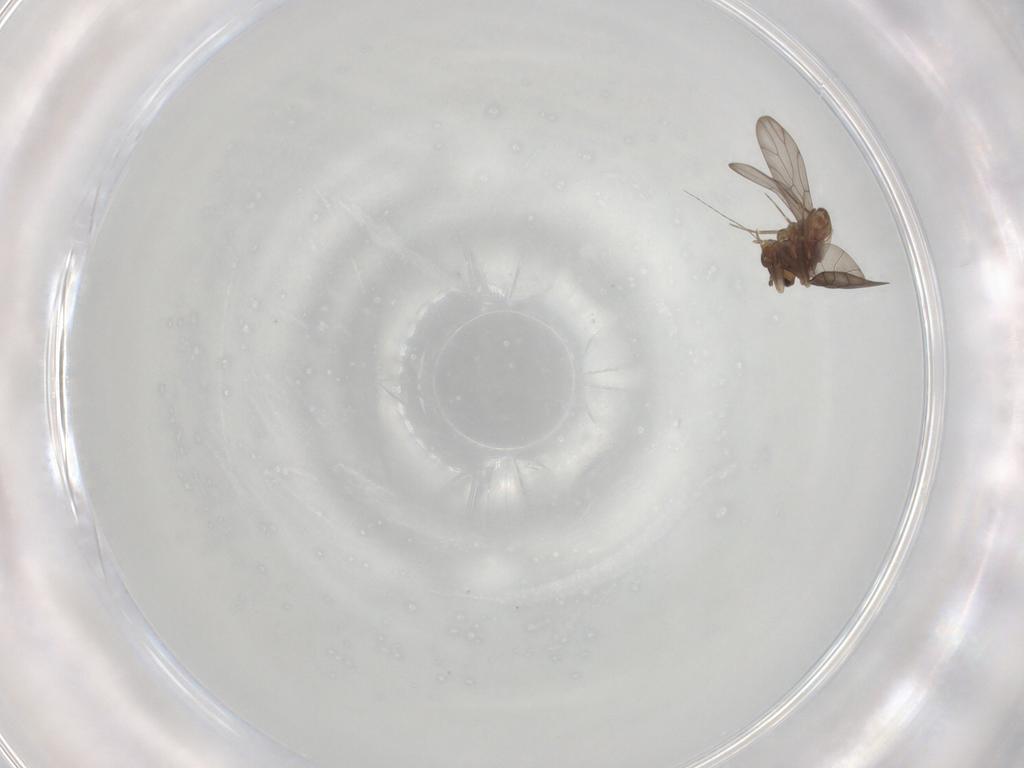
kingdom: Animalia
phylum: Arthropoda
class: Insecta
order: Psocodea
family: Lepidopsocidae
